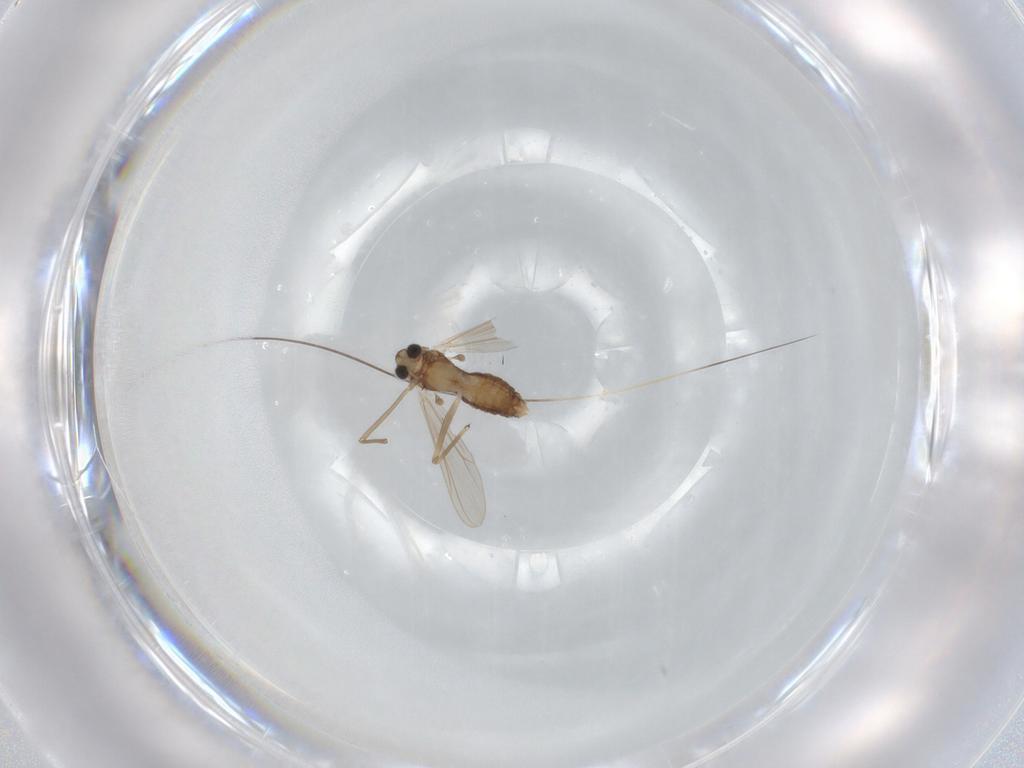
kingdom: Animalia
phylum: Arthropoda
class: Insecta
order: Diptera
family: Chironomidae
